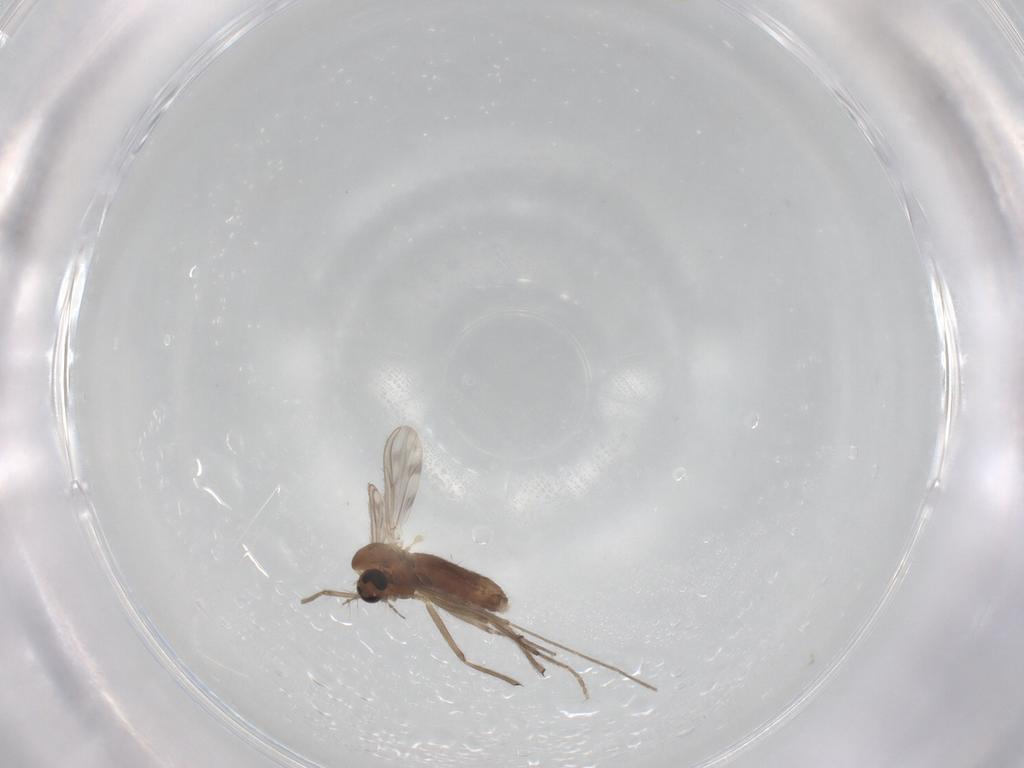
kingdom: Animalia
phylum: Arthropoda
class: Insecta
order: Diptera
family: Chironomidae
